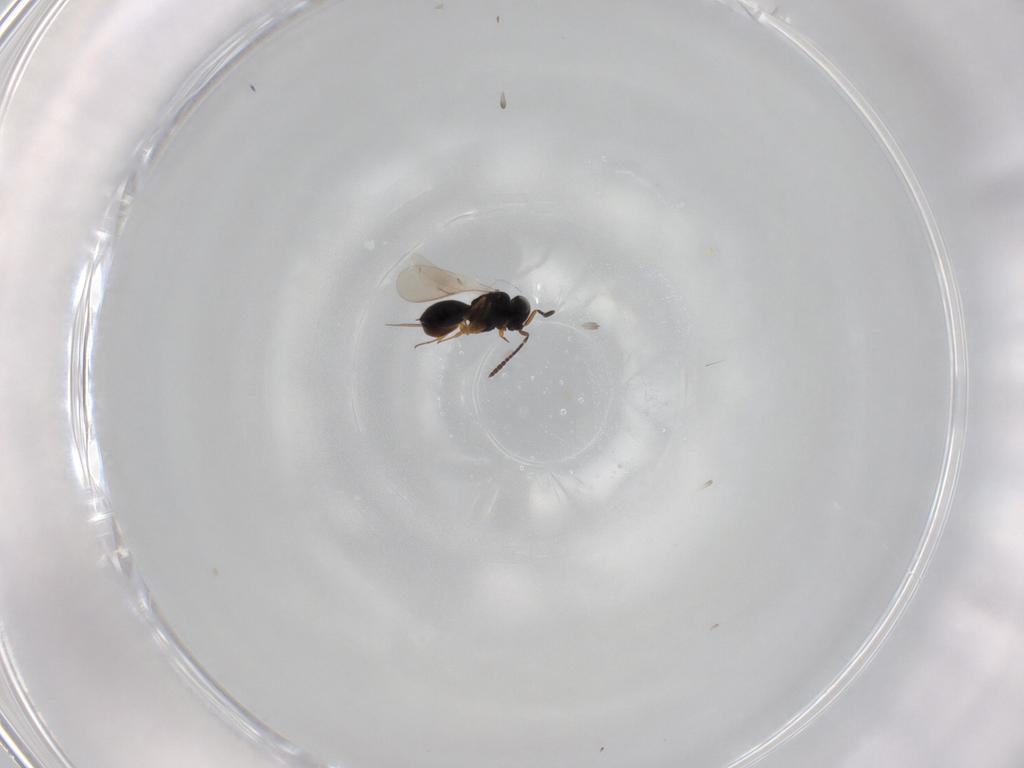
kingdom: Animalia
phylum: Arthropoda
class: Insecta
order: Hymenoptera
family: Scelionidae
